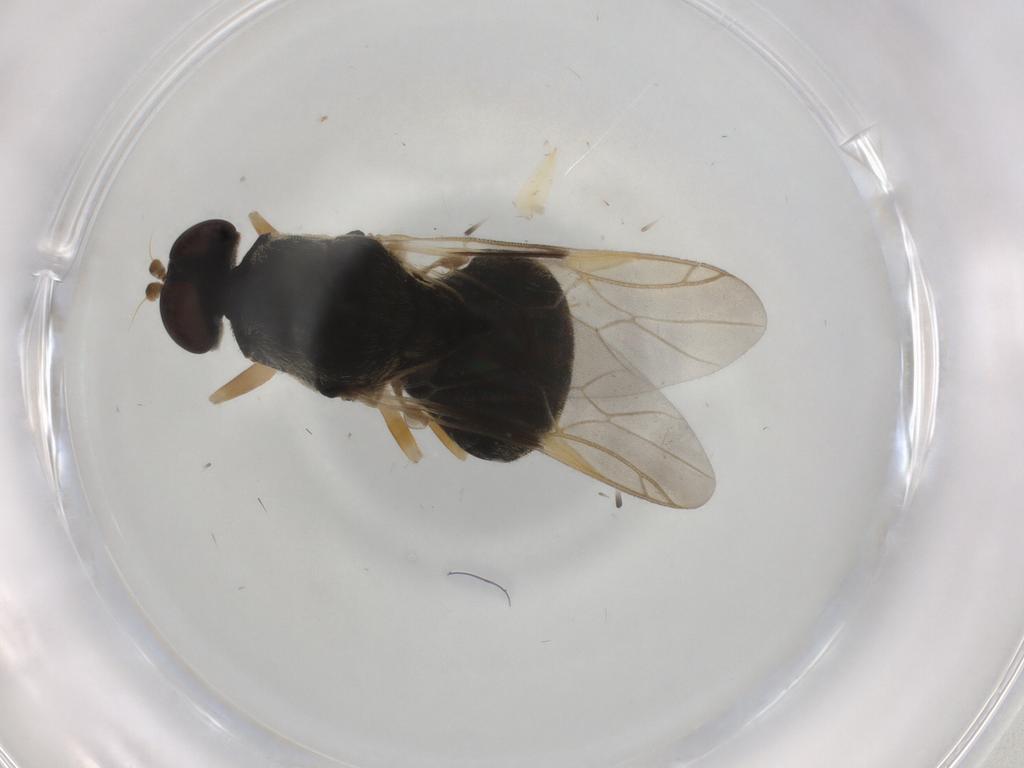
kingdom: Animalia
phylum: Arthropoda
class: Insecta
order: Diptera
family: Stratiomyidae
